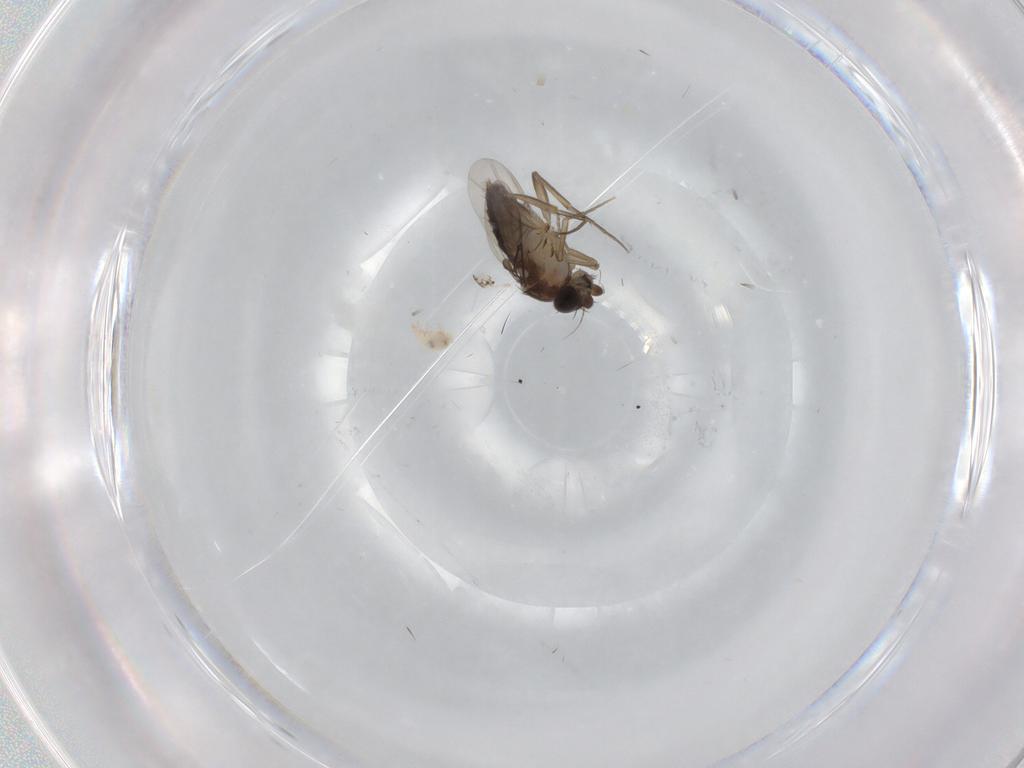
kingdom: Animalia
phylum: Arthropoda
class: Insecta
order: Diptera
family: Phoridae
